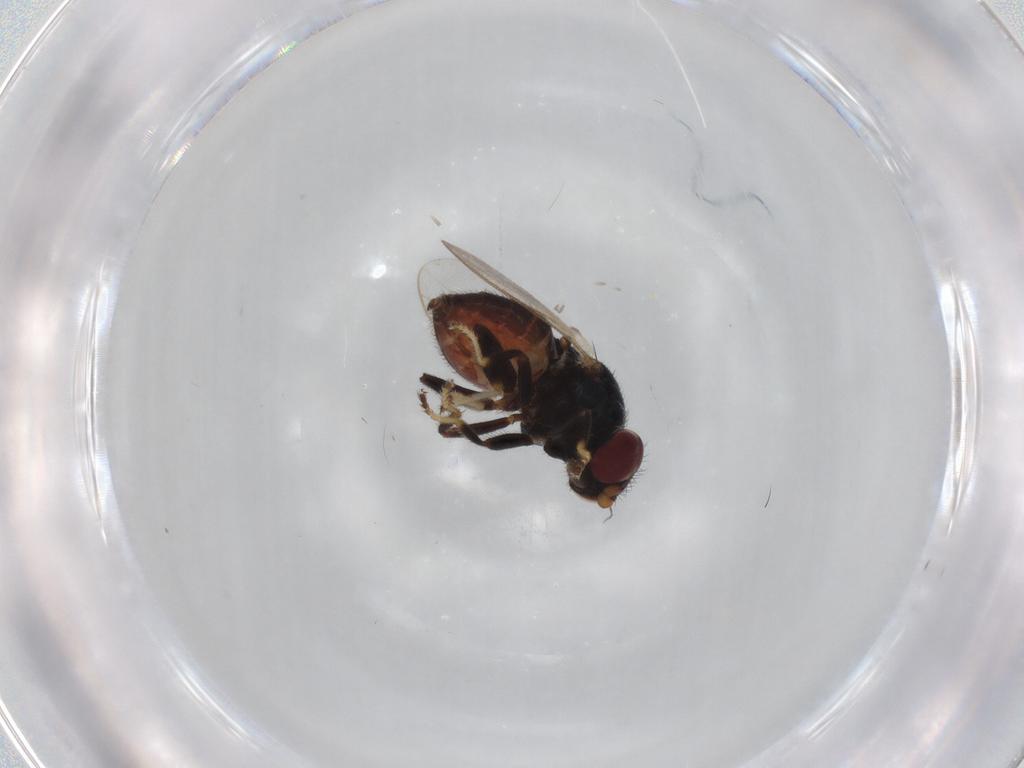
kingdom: Animalia
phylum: Arthropoda
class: Insecta
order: Diptera
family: Chloropidae
